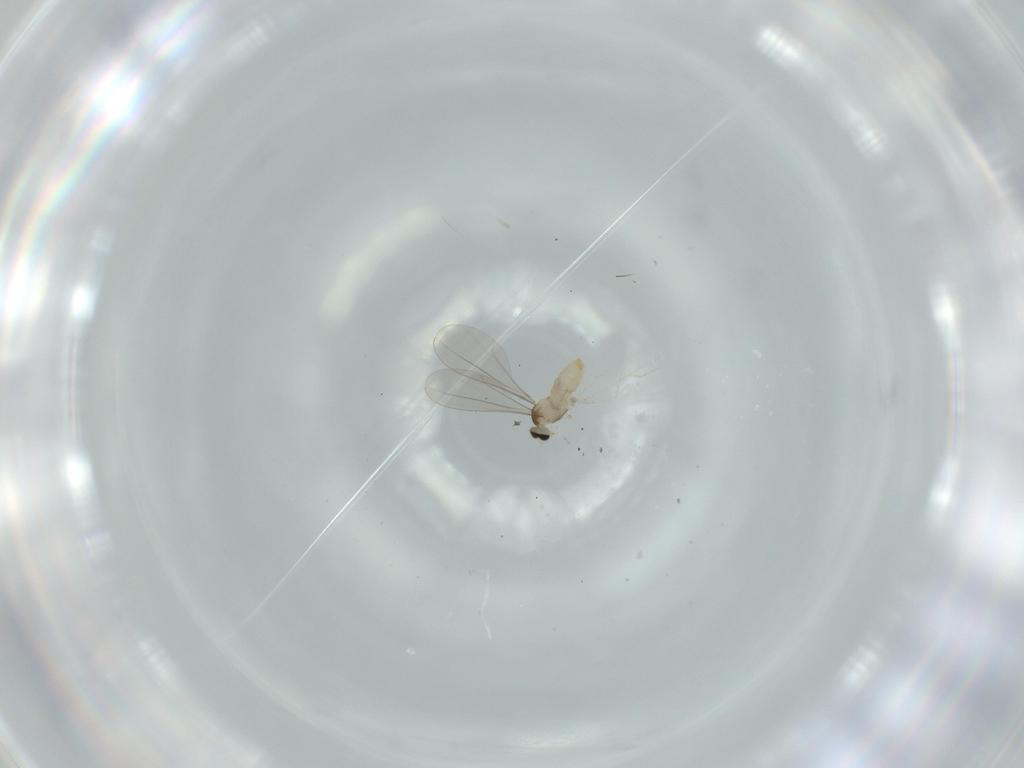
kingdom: Animalia
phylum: Arthropoda
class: Insecta
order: Diptera
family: Cecidomyiidae
